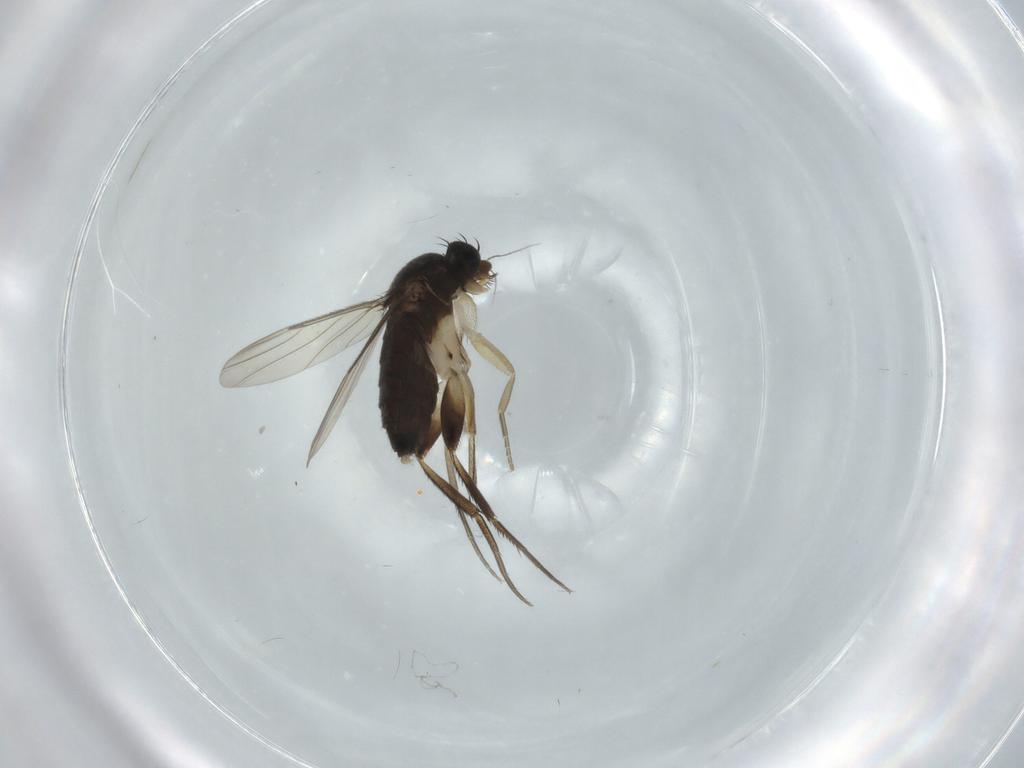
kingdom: Animalia
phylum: Arthropoda
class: Insecta
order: Diptera
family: Phoridae
